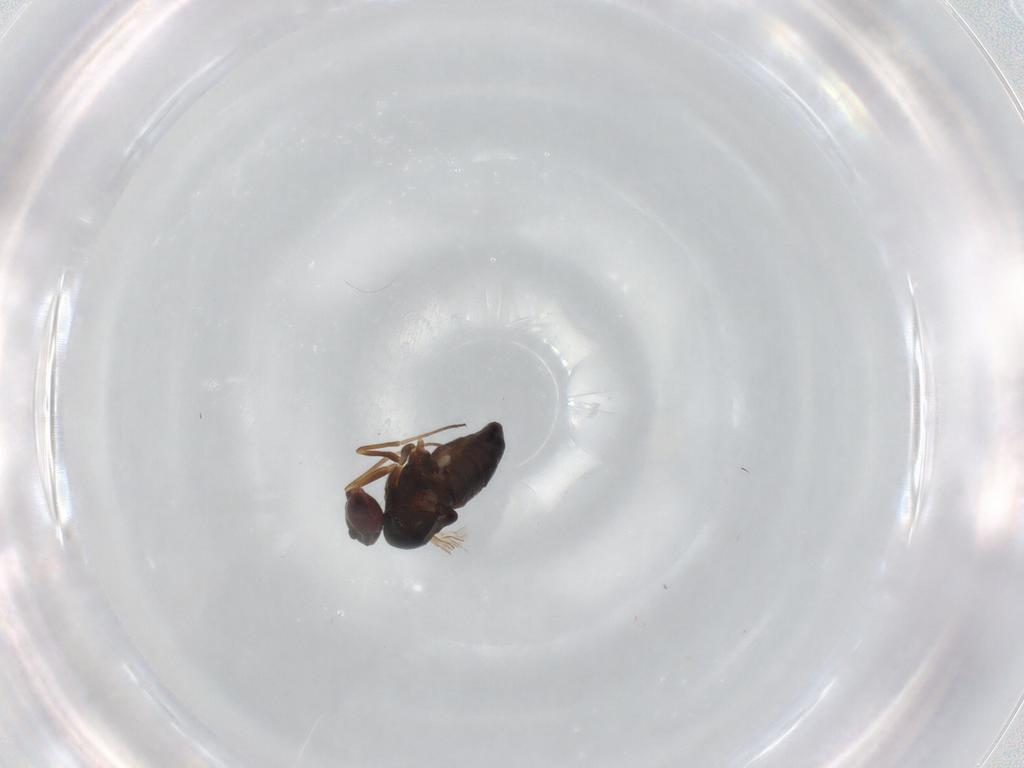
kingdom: Animalia
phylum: Arthropoda
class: Insecta
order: Diptera
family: Dolichopodidae
